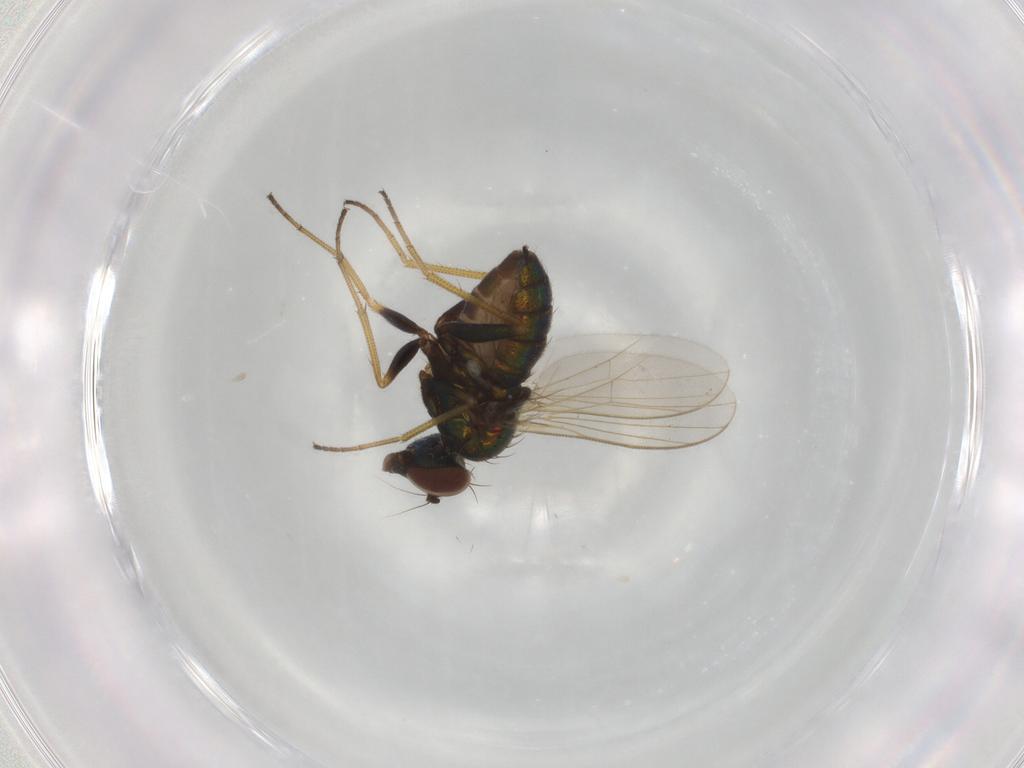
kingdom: Animalia
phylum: Arthropoda
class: Insecta
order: Diptera
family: Dolichopodidae
